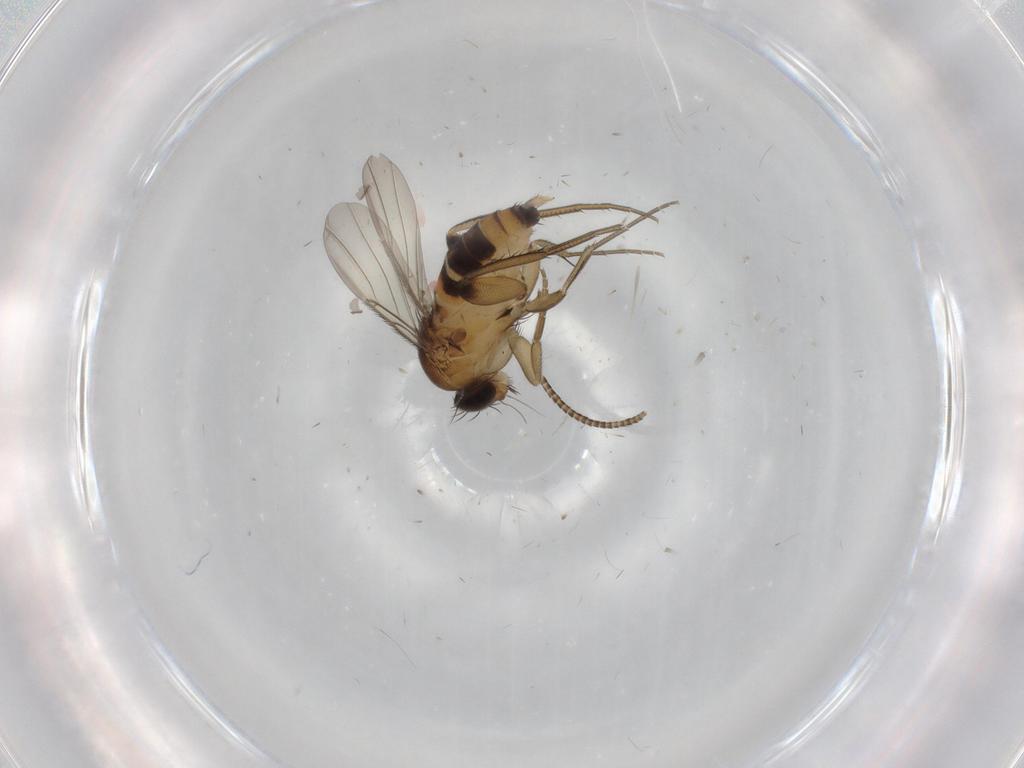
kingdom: Animalia
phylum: Arthropoda
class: Insecta
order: Diptera
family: Phoridae
